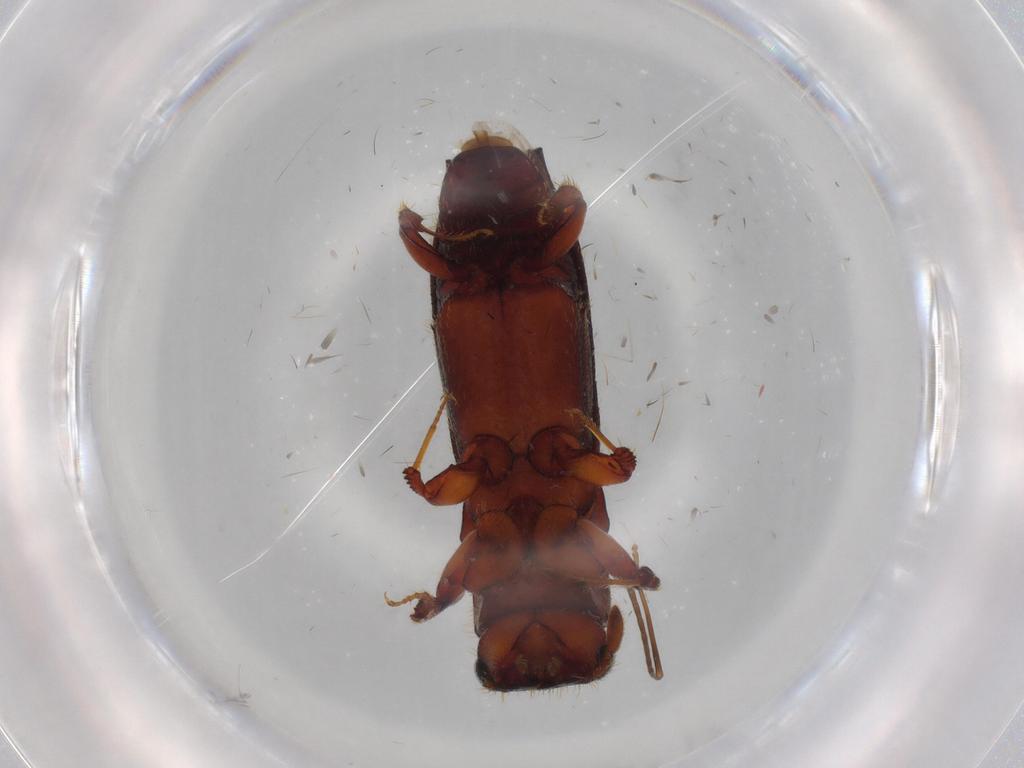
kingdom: Animalia
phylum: Arthropoda
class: Insecta
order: Coleoptera
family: Curculionidae
